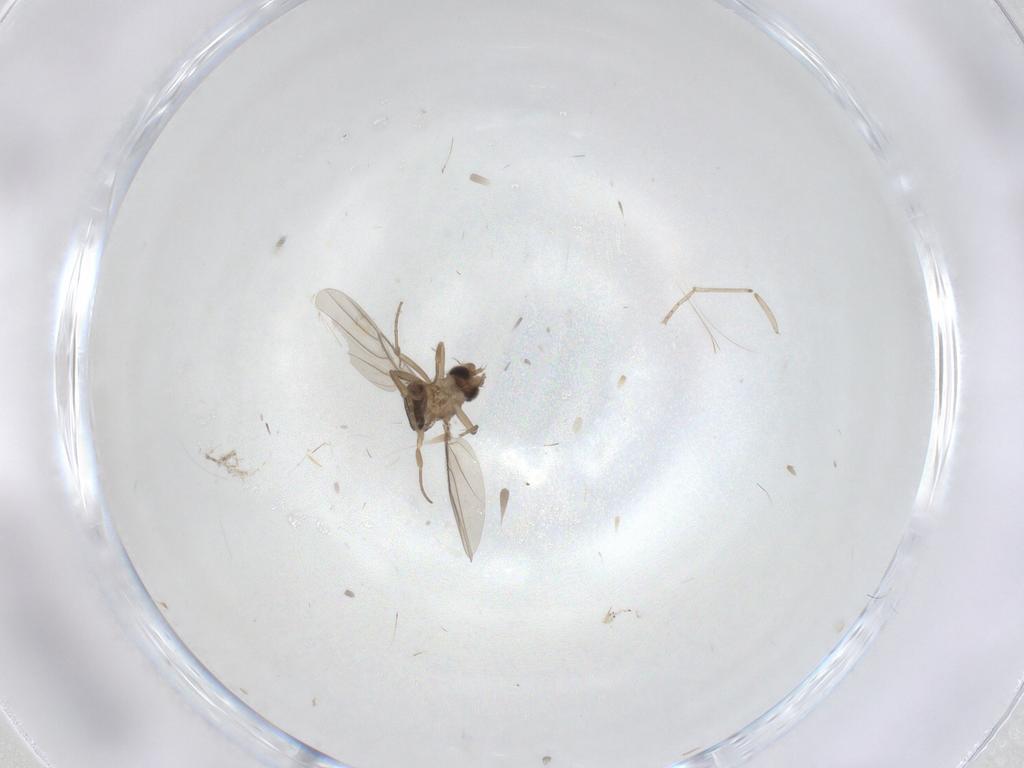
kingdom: Animalia
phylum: Arthropoda
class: Insecta
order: Diptera
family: Phoridae
